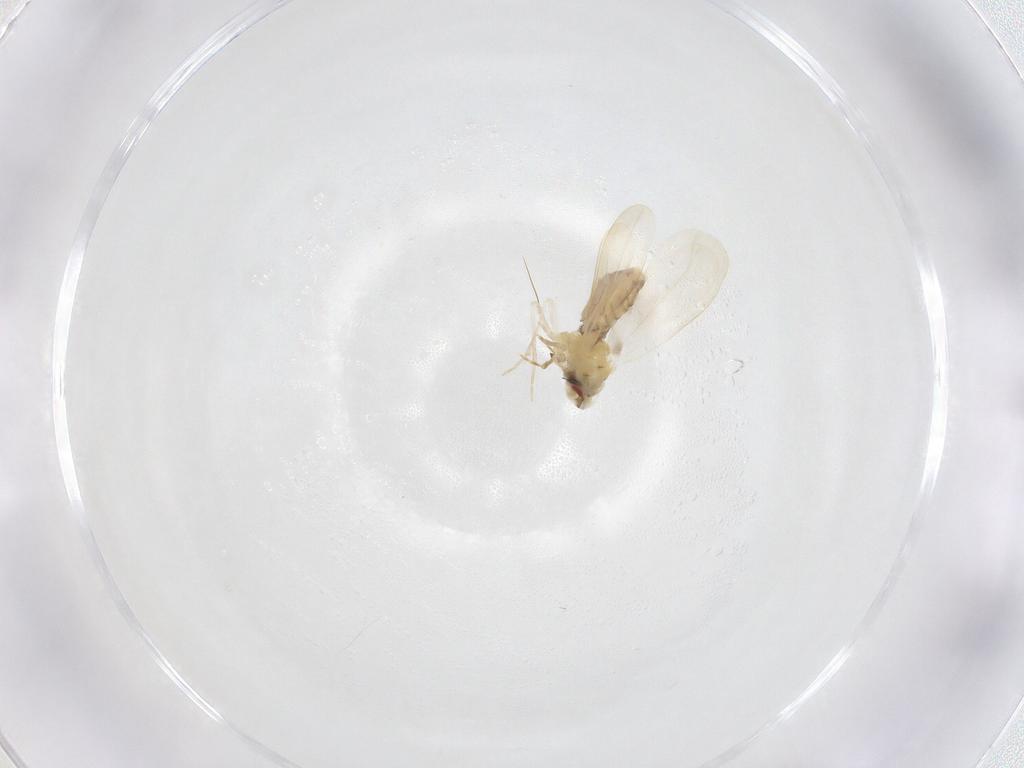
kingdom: Animalia
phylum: Arthropoda
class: Insecta
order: Hemiptera
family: Aleyrodidae
